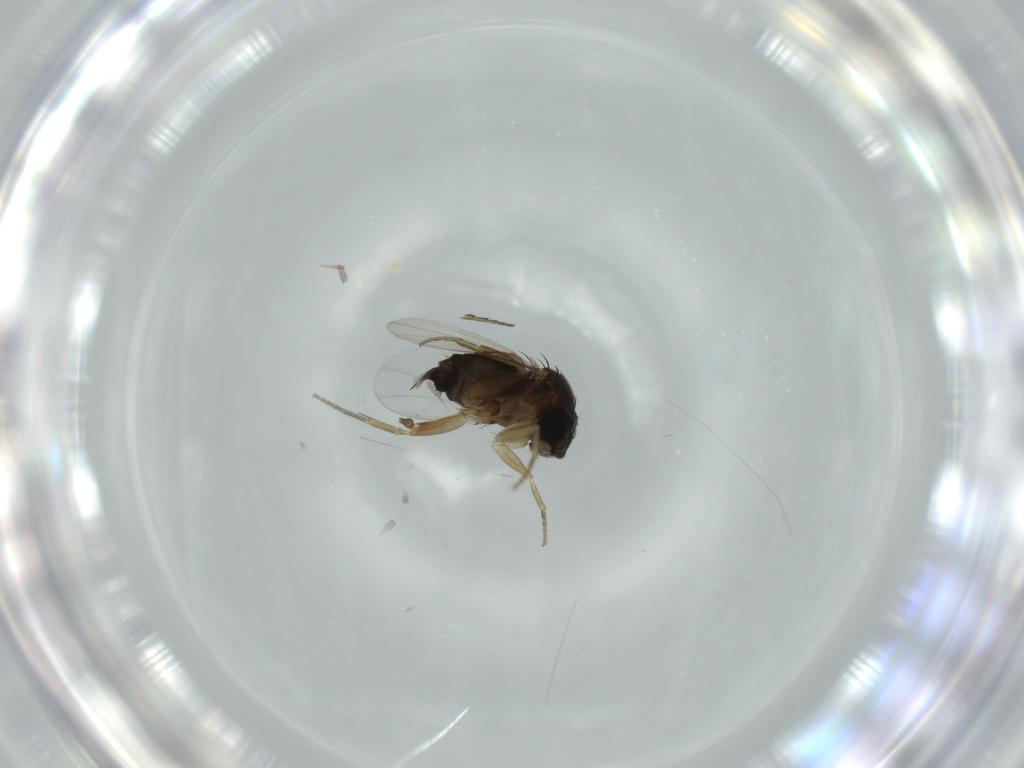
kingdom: Animalia
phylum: Arthropoda
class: Insecta
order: Diptera
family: Phoridae
